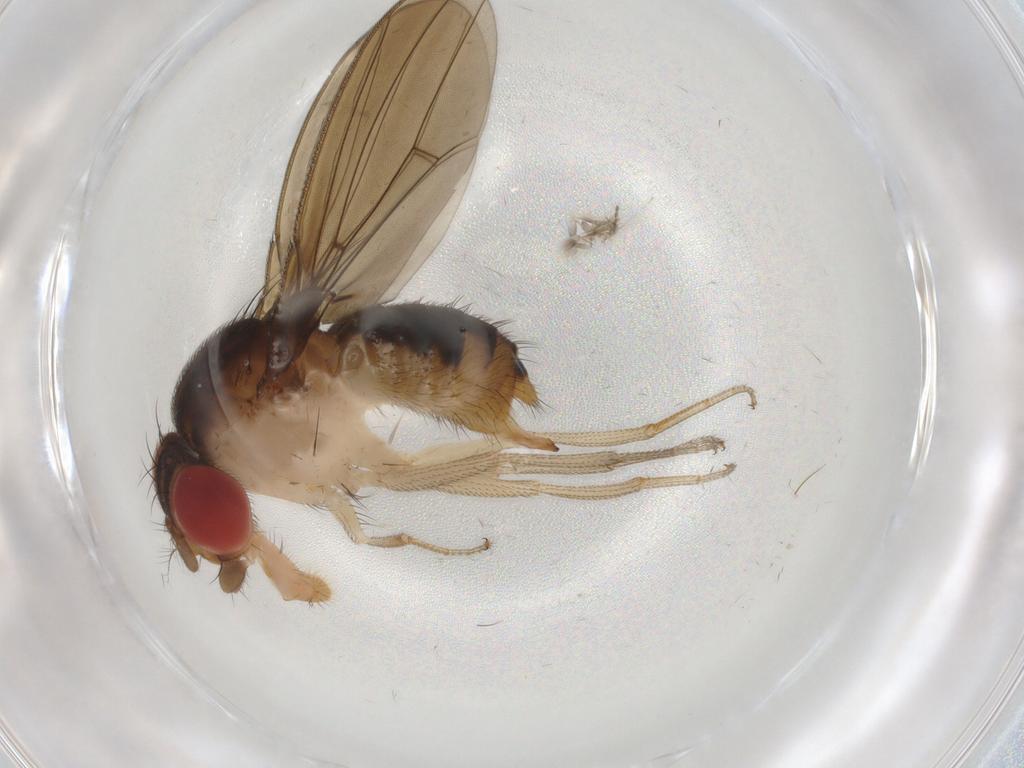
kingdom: Animalia
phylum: Arthropoda
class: Insecta
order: Diptera
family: Drosophilidae
